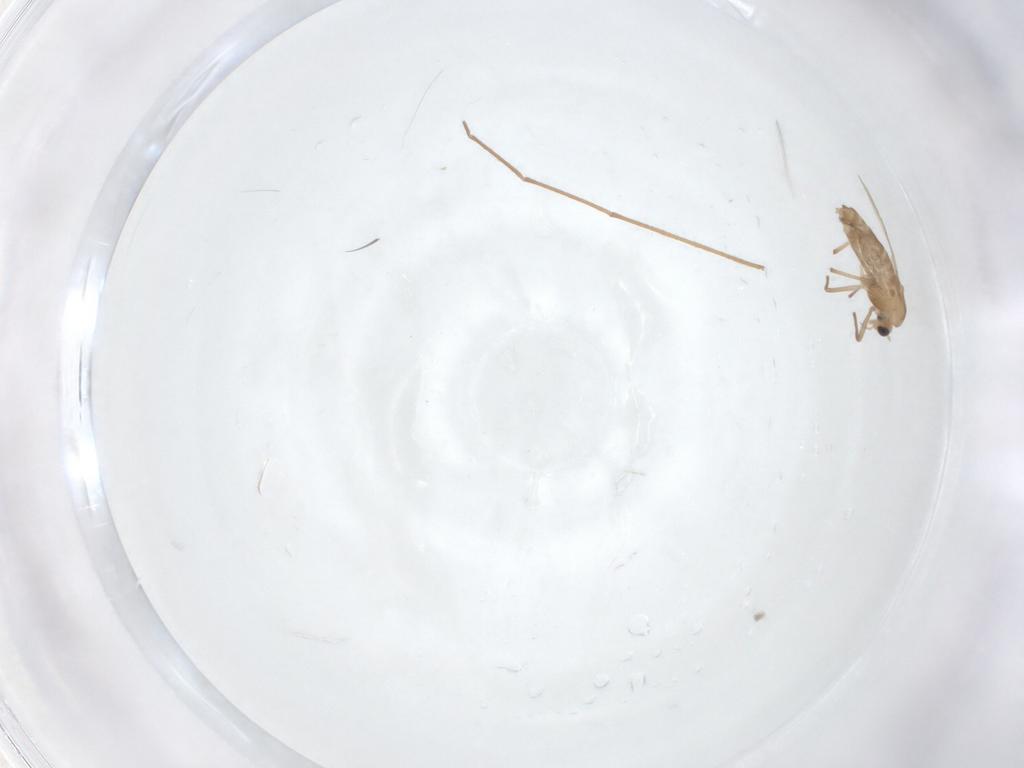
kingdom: Animalia
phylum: Arthropoda
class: Insecta
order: Diptera
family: Chironomidae
